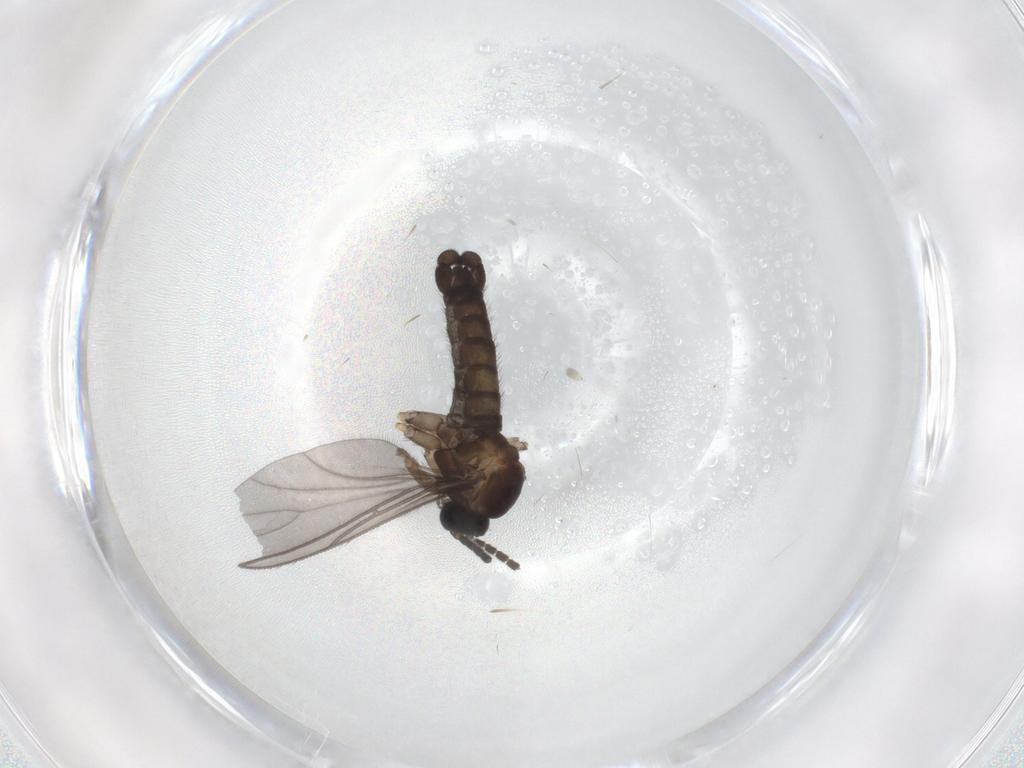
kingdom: Animalia
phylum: Arthropoda
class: Insecta
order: Diptera
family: Sciaridae
